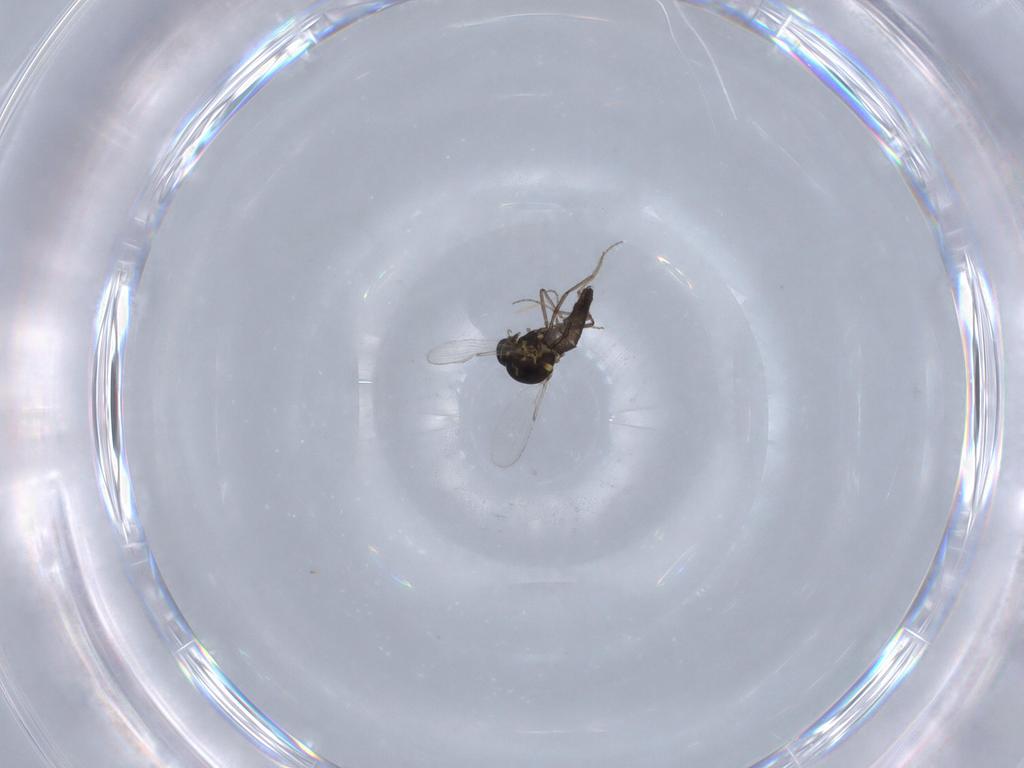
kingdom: Animalia
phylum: Arthropoda
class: Insecta
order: Diptera
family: Ceratopogonidae
